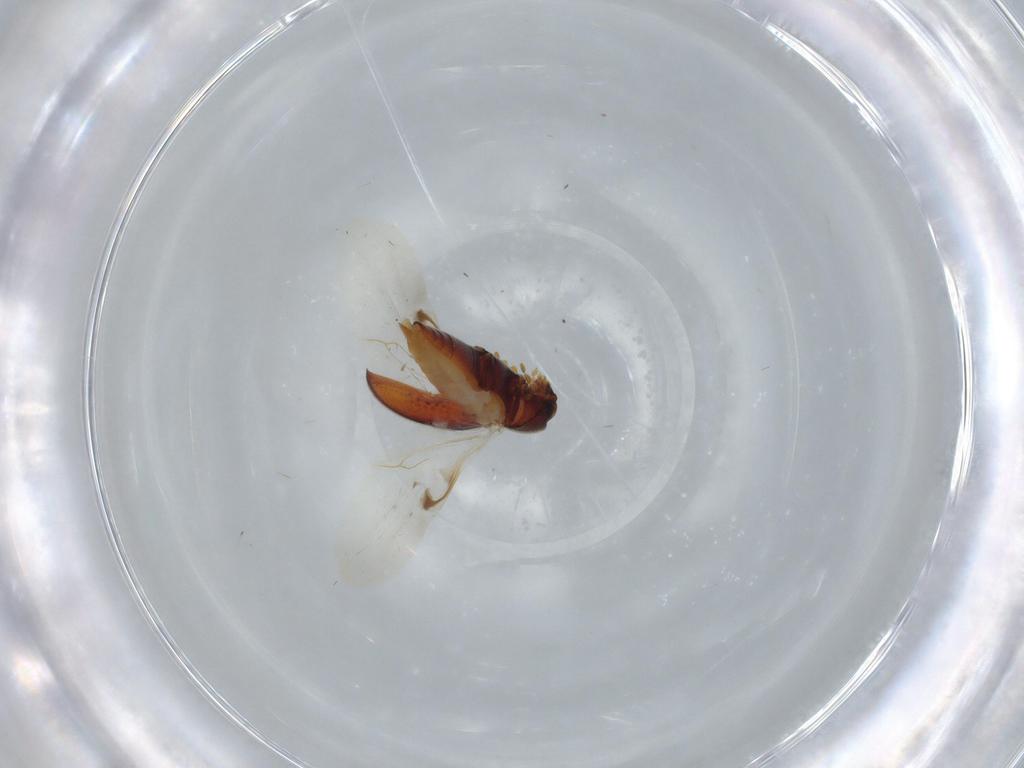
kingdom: Animalia
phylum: Arthropoda
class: Insecta
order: Coleoptera
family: Ptinidae
